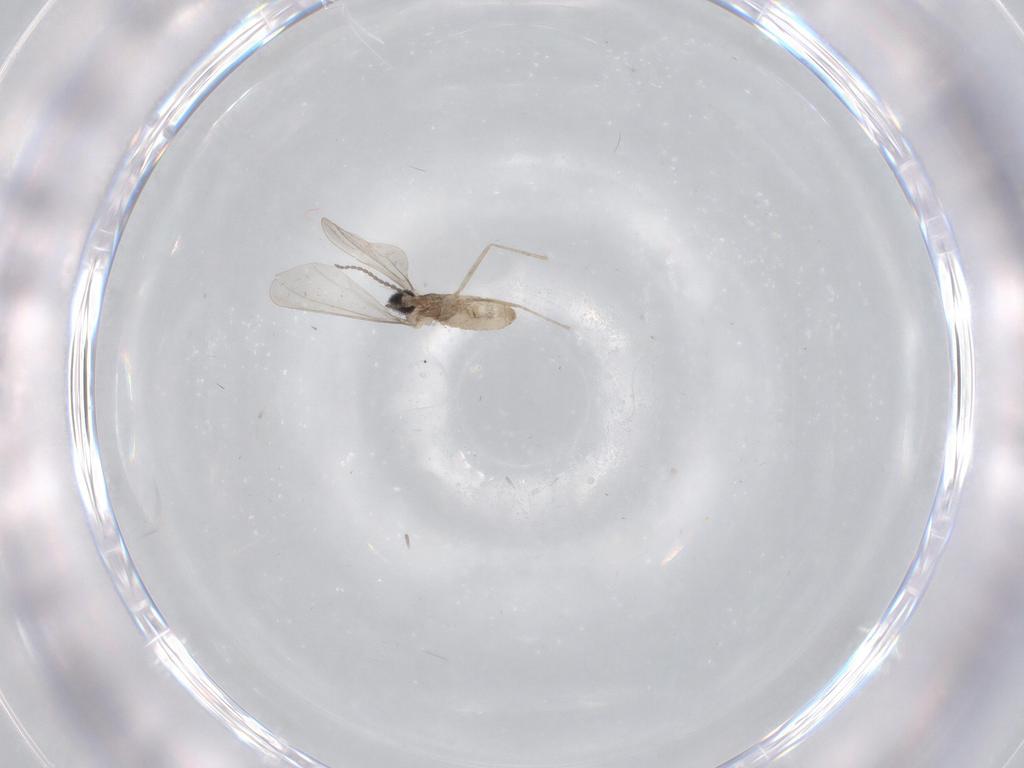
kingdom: Animalia
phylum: Arthropoda
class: Insecta
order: Diptera
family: Cecidomyiidae
